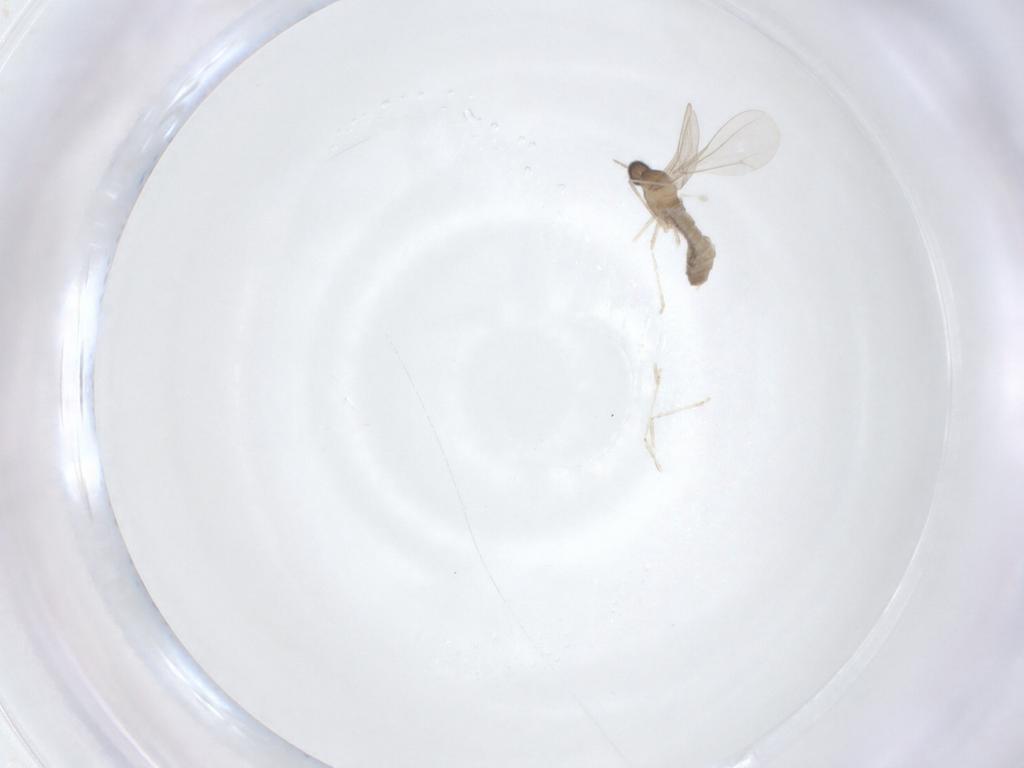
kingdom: Animalia
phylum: Arthropoda
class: Insecta
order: Diptera
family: Cecidomyiidae
